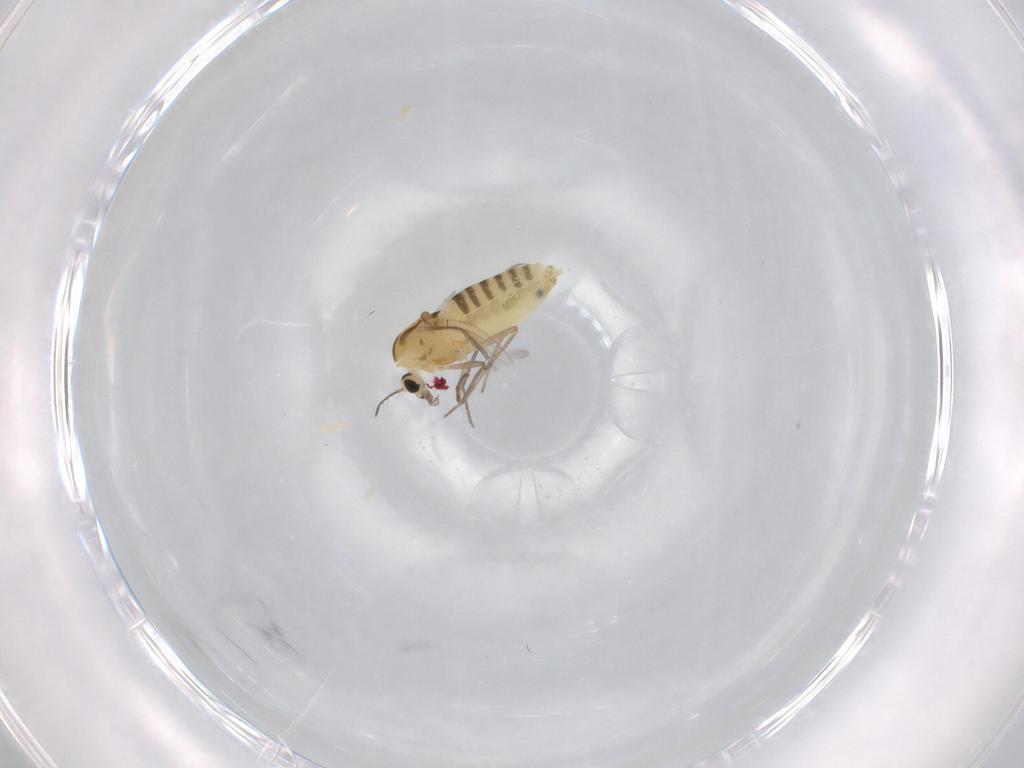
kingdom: Animalia
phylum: Arthropoda
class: Insecta
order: Diptera
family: Chironomidae
